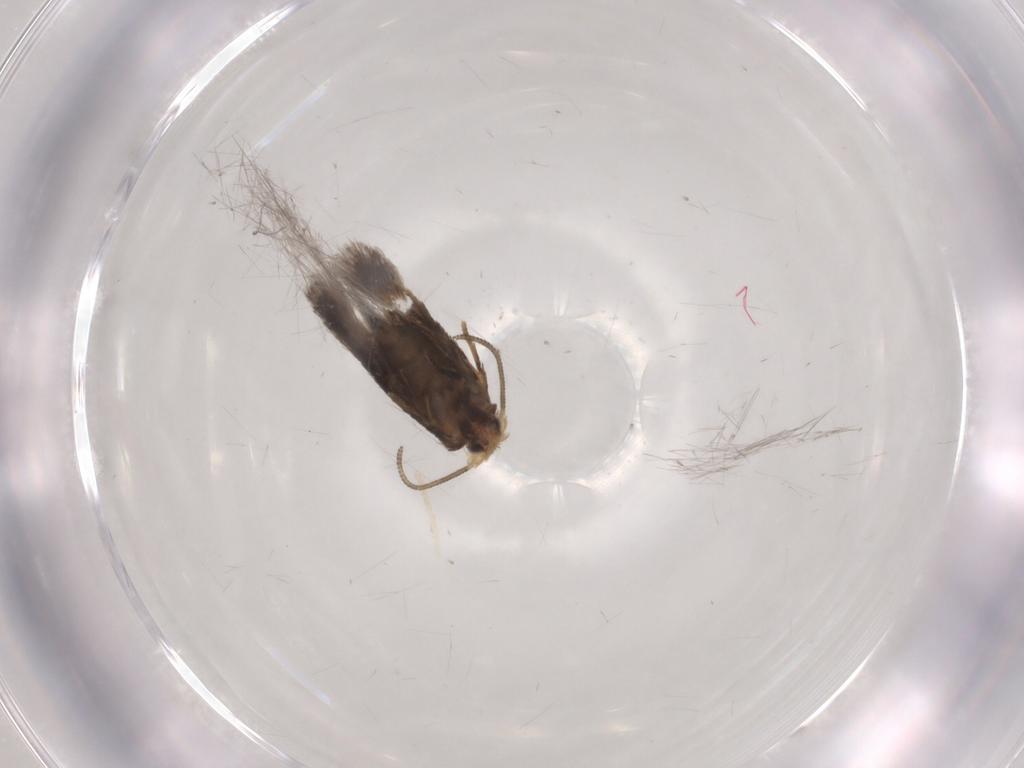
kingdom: Animalia
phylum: Arthropoda
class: Insecta
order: Lepidoptera
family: Nepticulidae
